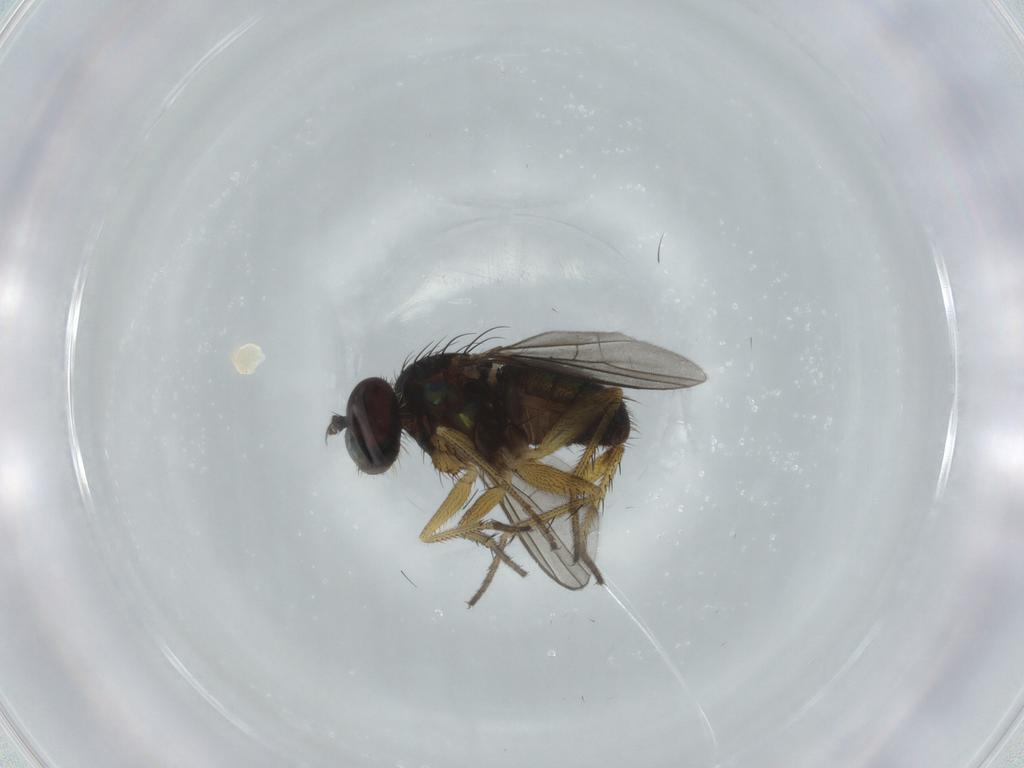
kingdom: Animalia
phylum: Arthropoda
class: Insecta
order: Diptera
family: Dolichopodidae
